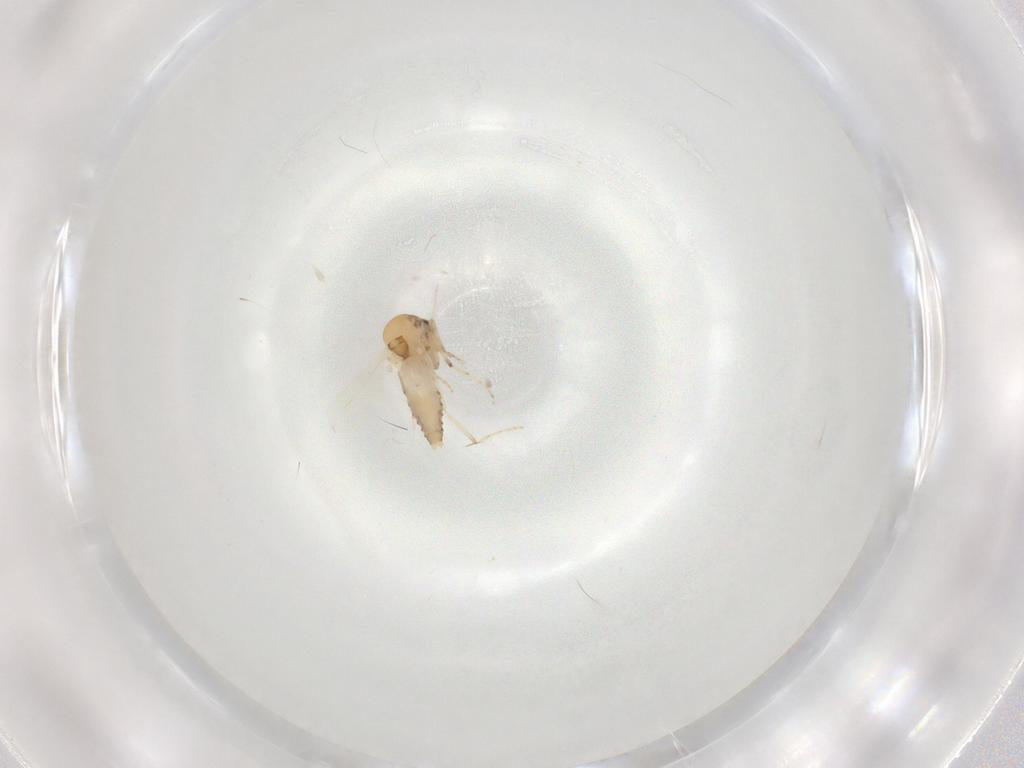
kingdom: Animalia
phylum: Arthropoda
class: Insecta
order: Diptera
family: Ceratopogonidae
